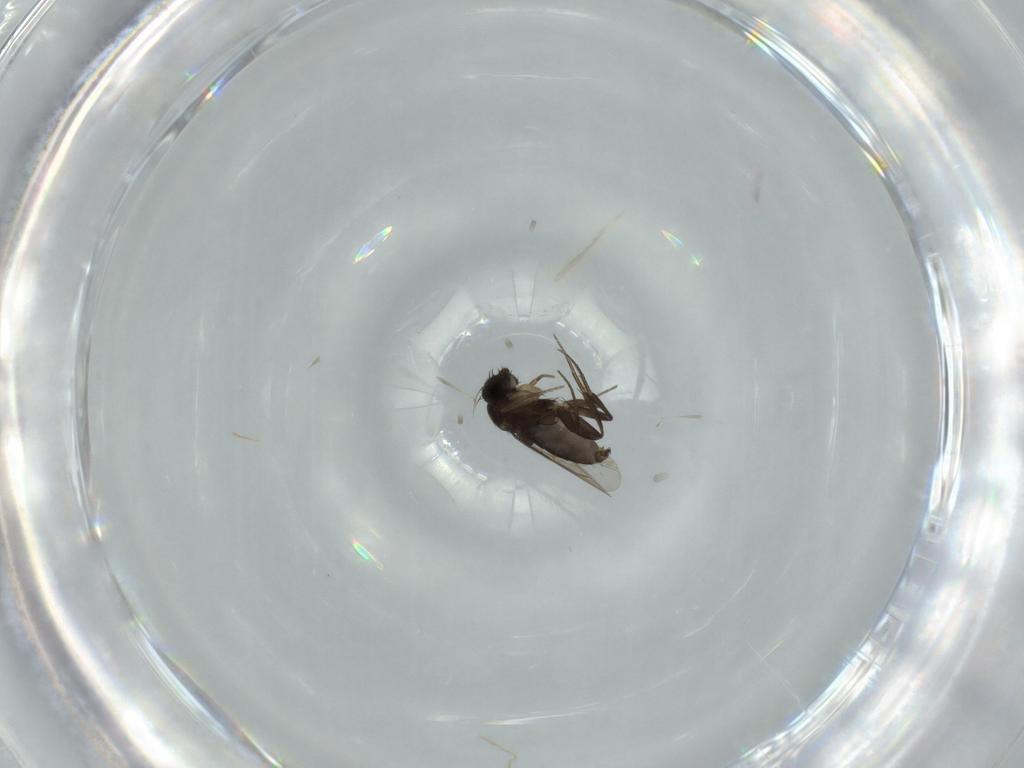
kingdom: Animalia
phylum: Arthropoda
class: Insecta
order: Diptera
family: Phoridae
